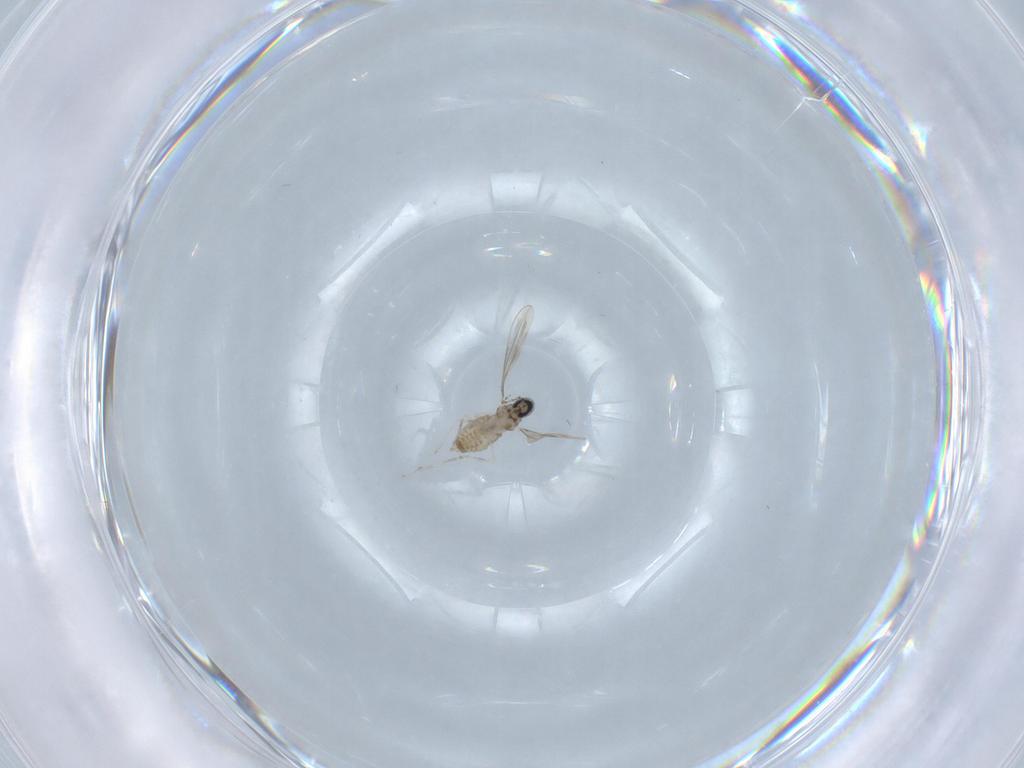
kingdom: Animalia
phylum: Arthropoda
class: Insecta
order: Diptera
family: Cecidomyiidae
